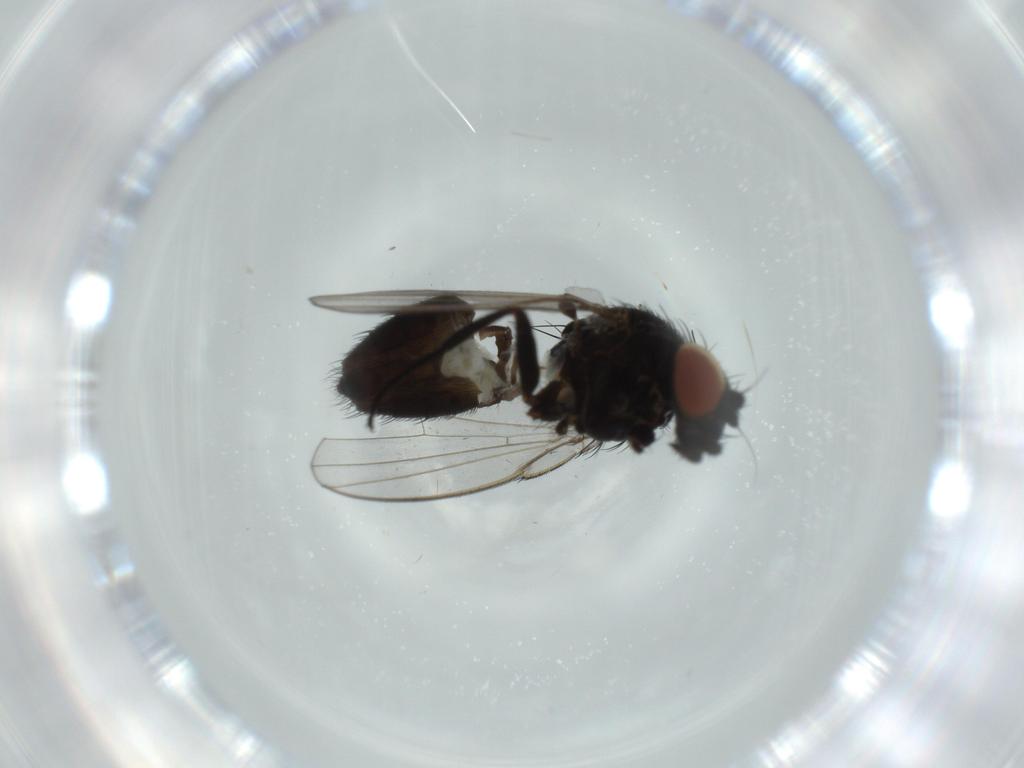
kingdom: Animalia
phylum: Arthropoda
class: Insecta
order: Diptera
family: Milichiidae
